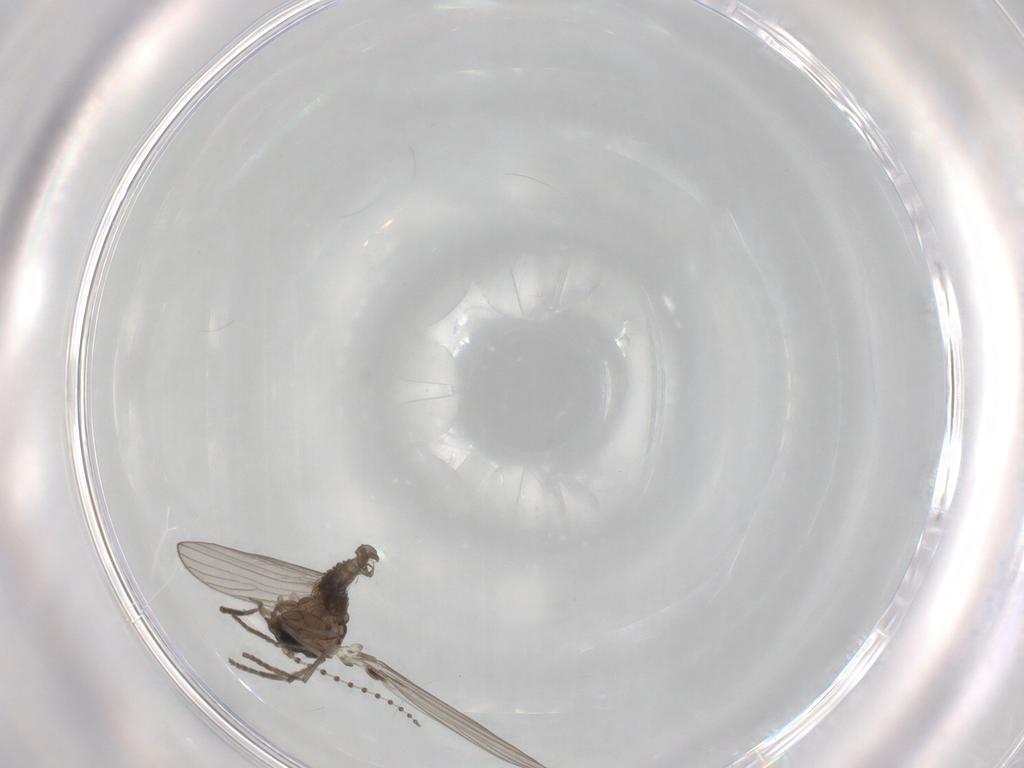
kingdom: Animalia
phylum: Arthropoda
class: Insecta
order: Diptera
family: Psychodidae
